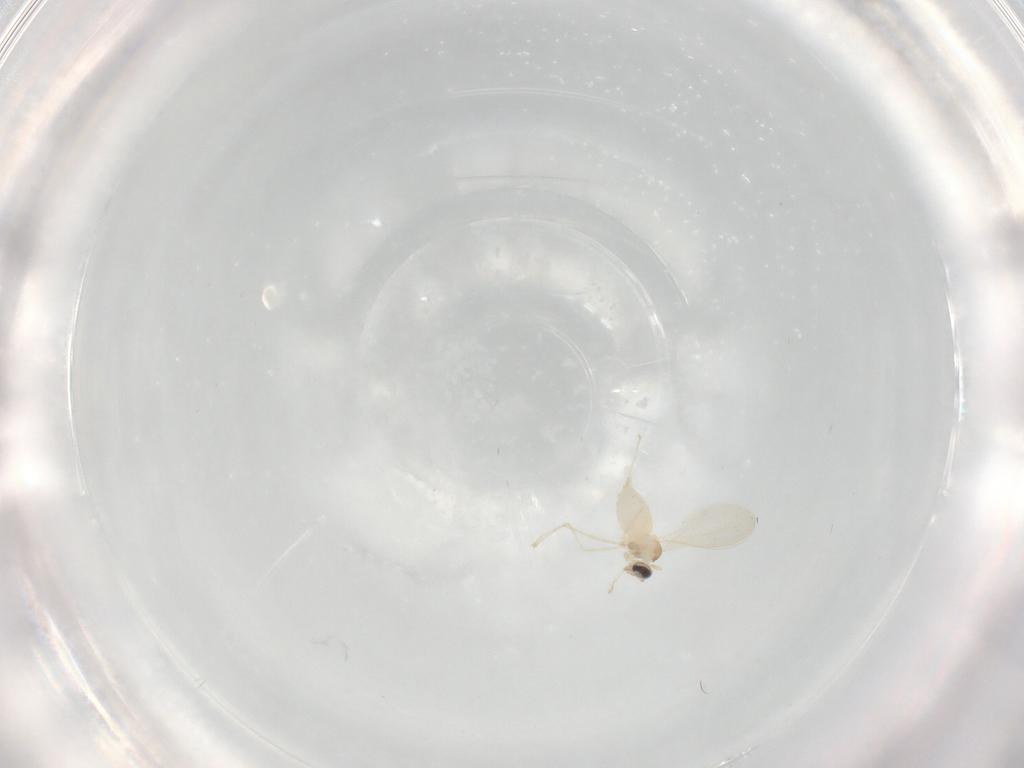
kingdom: Animalia
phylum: Arthropoda
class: Insecta
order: Diptera
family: Cecidomyiidae
